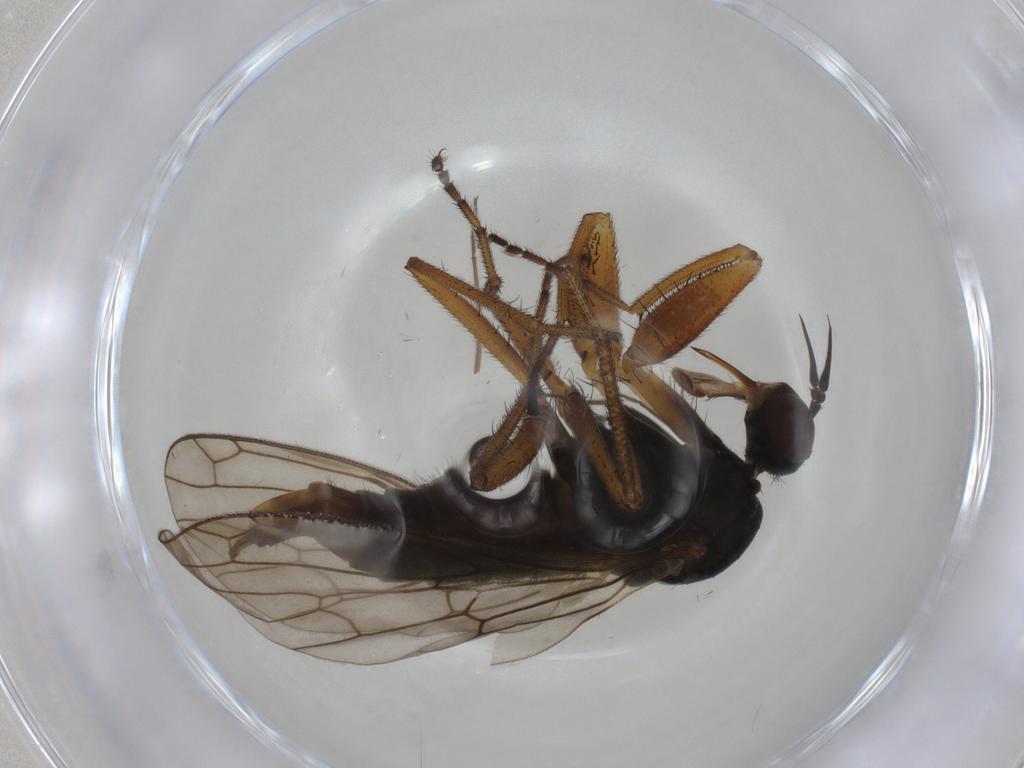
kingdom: Animalia
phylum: Arthropoda
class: Insecta
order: Diptera
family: Empididae
